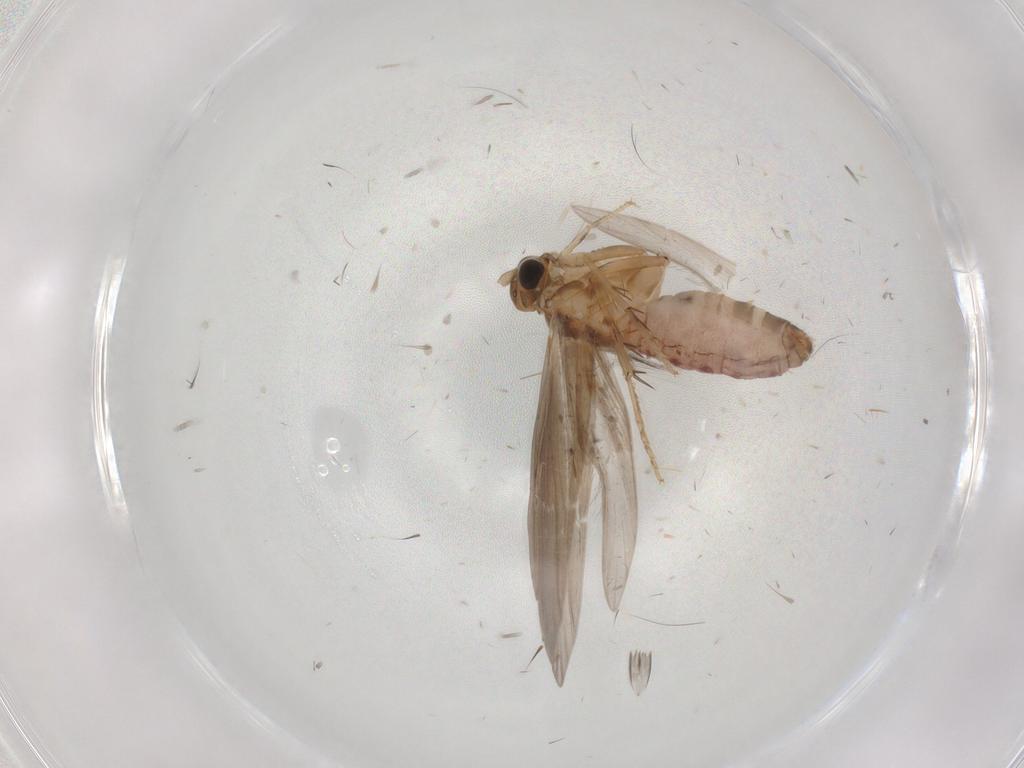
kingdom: Animalia
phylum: Arthropoda
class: Insecta
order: Trichoptera
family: Glossosomatidae
